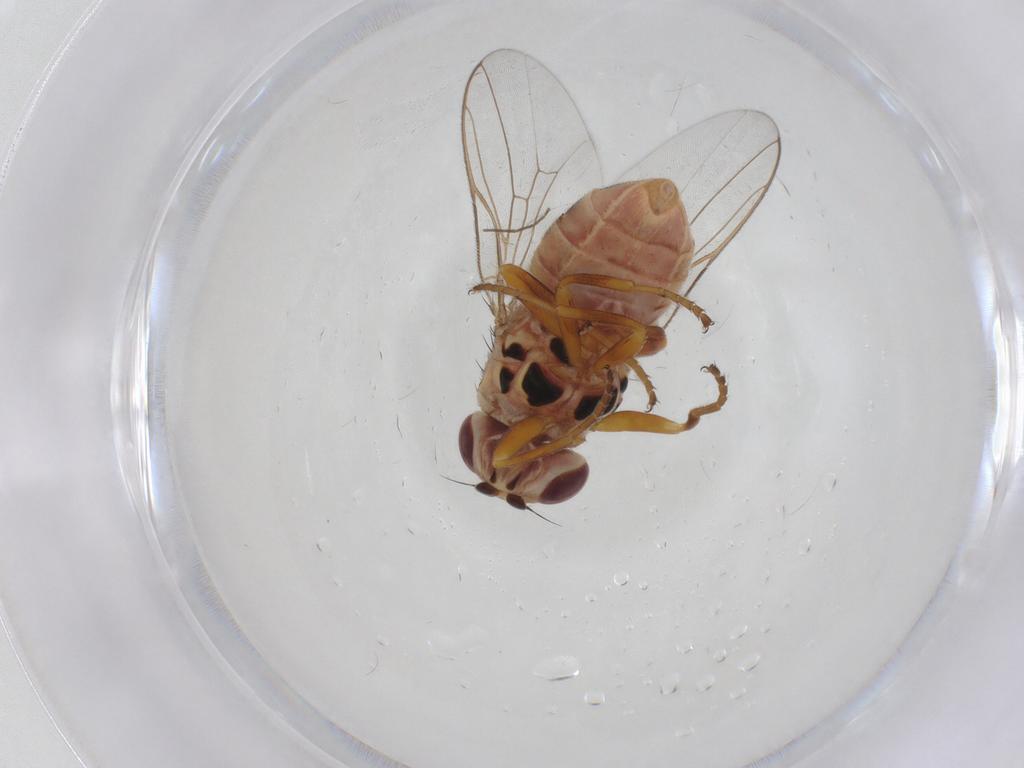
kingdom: Animalia
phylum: Arthropoda
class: Insecta
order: Diptera
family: Chloropidae
